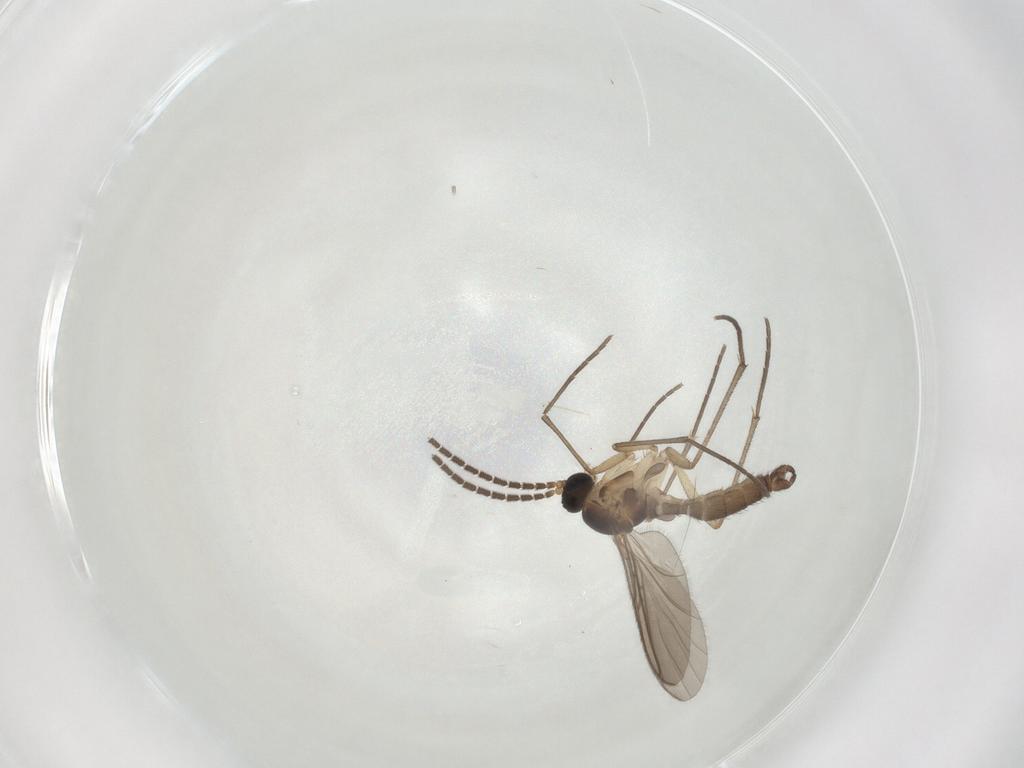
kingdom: Animalia
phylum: Arthropoda
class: Insecta
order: Diptera
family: Sciaridae
